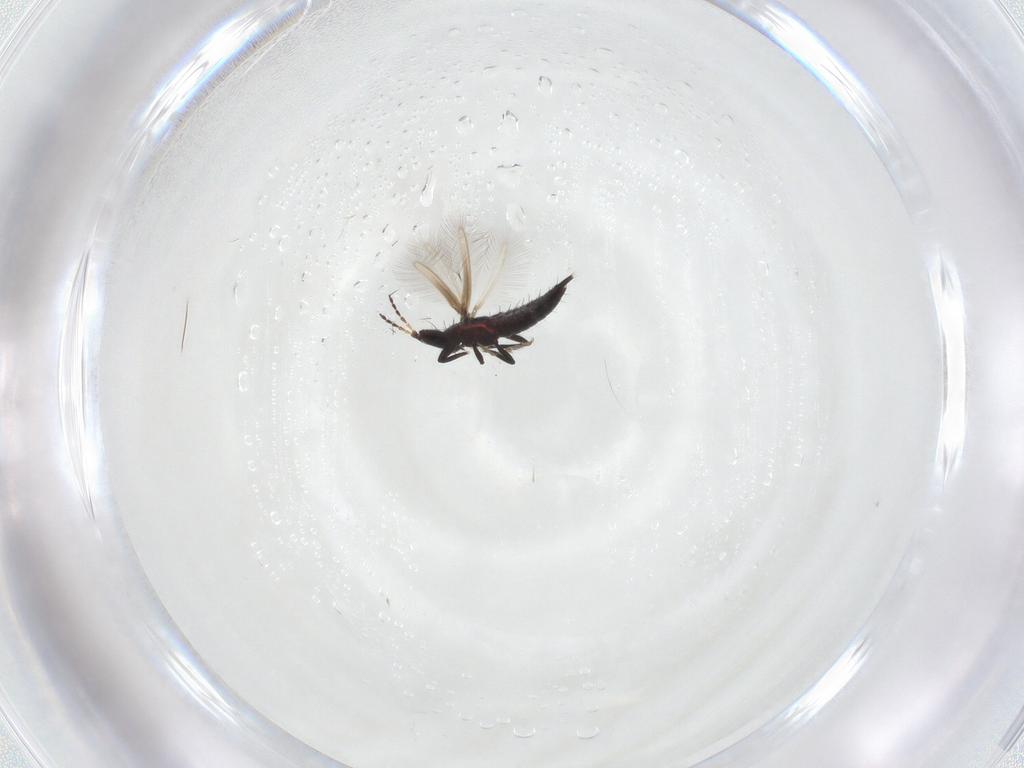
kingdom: Animalia
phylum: Arthropoda
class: Insecta
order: Thysanoptera
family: Phlaeothripidae
